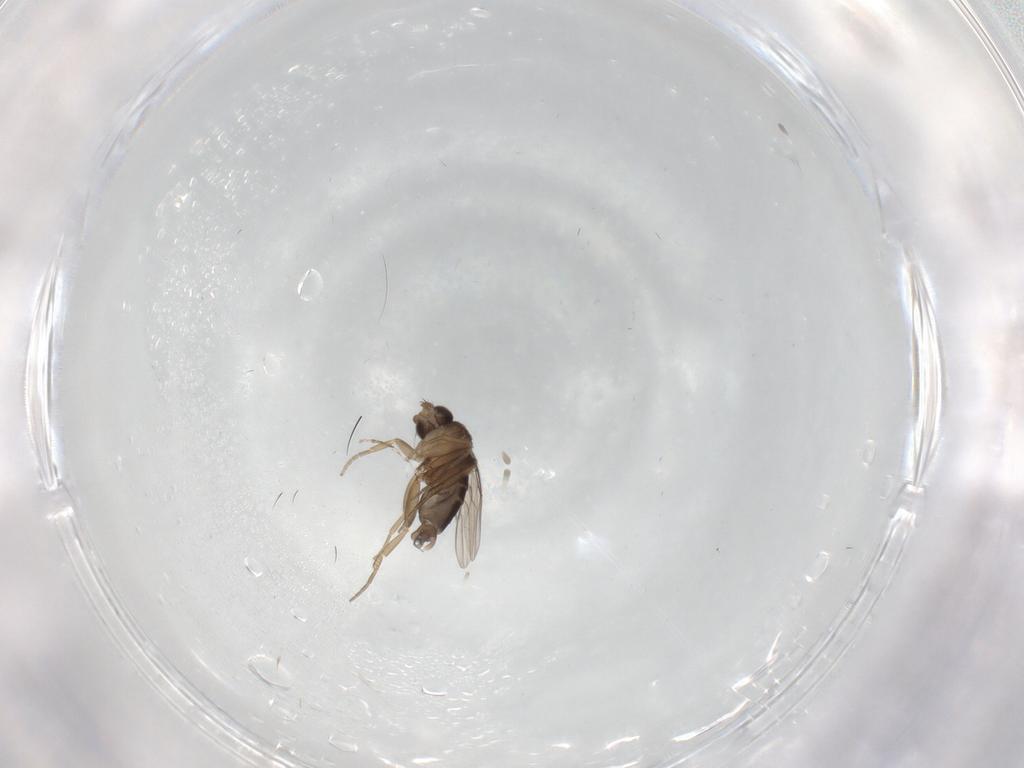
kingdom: Animalia
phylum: Arthropoda
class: Insecta
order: Diptera
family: Phoridae
